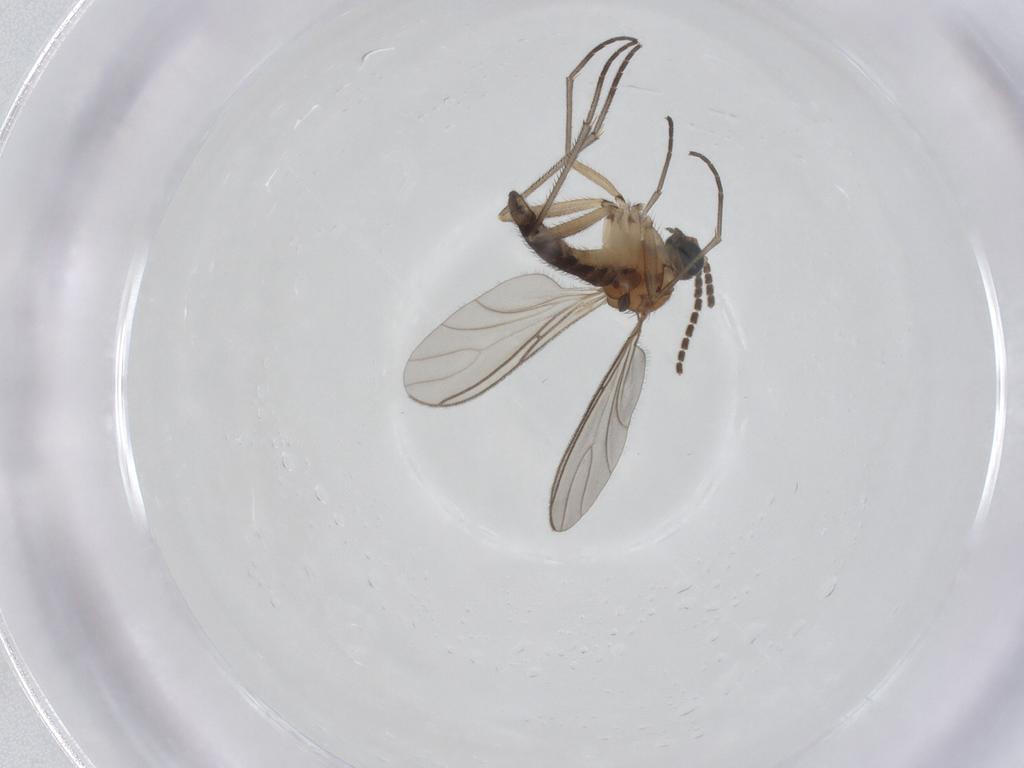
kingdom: Animalia
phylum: Arthropoda
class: Insecta
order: Diptera
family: Sciaridae
